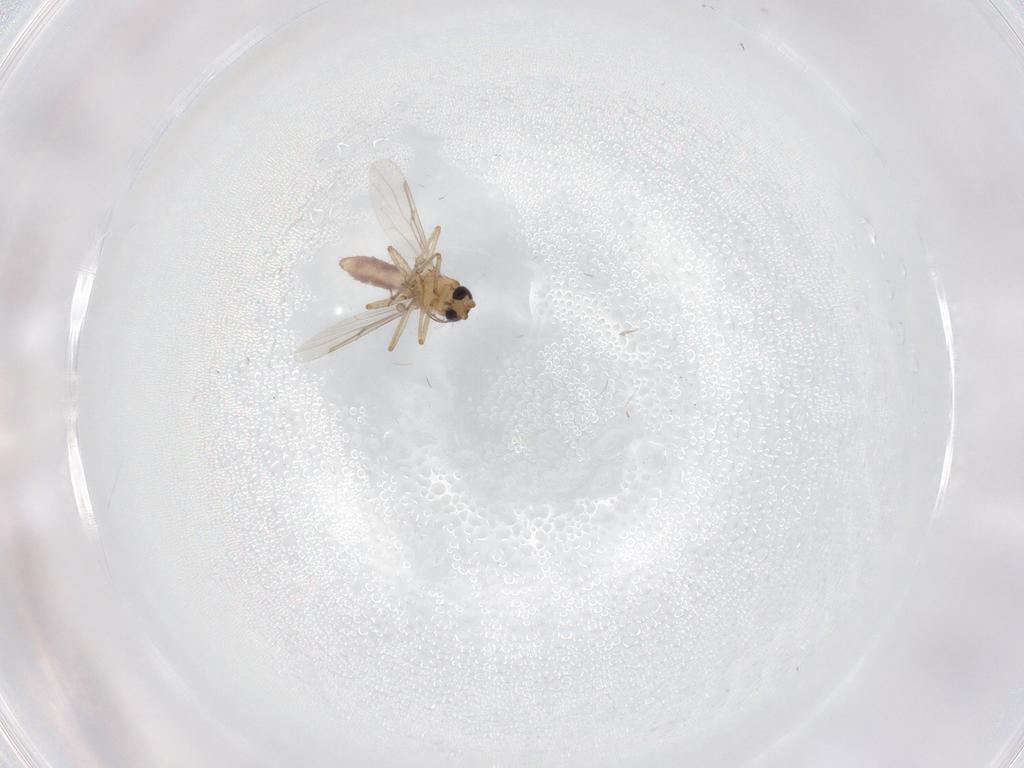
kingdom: Animalia
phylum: Arthropoda
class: Insecta
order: Diptera
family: Ceratopogonidae
